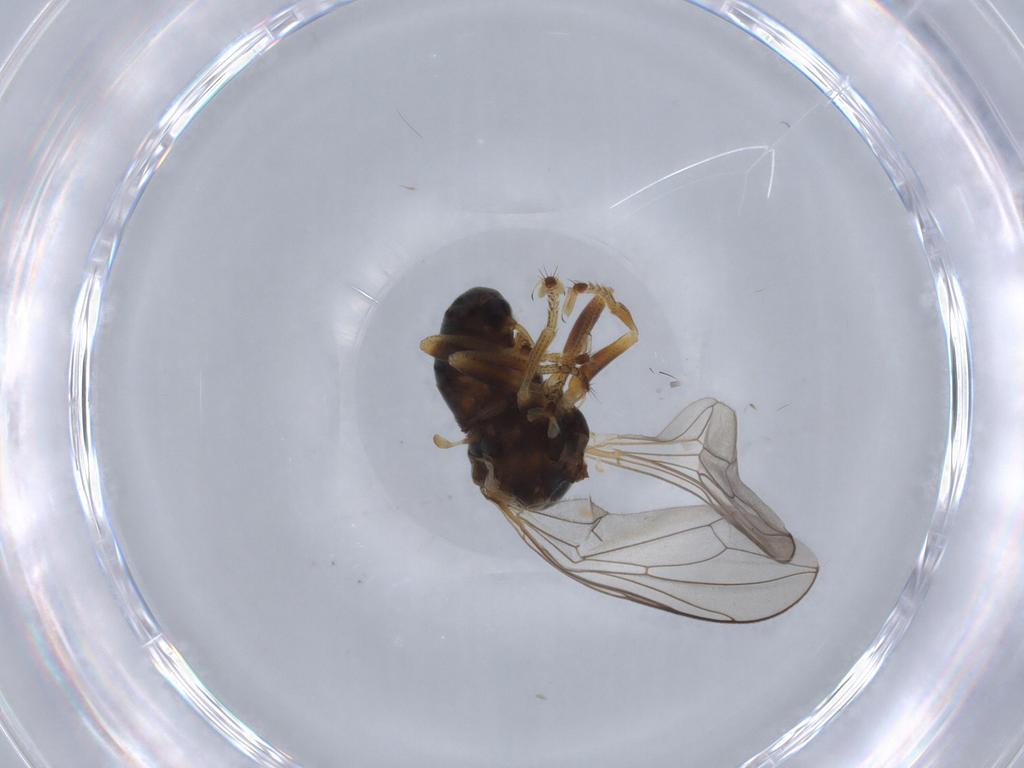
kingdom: Animalia
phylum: Arthropoda
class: Insecta
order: Diptera
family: Pipunculidae
